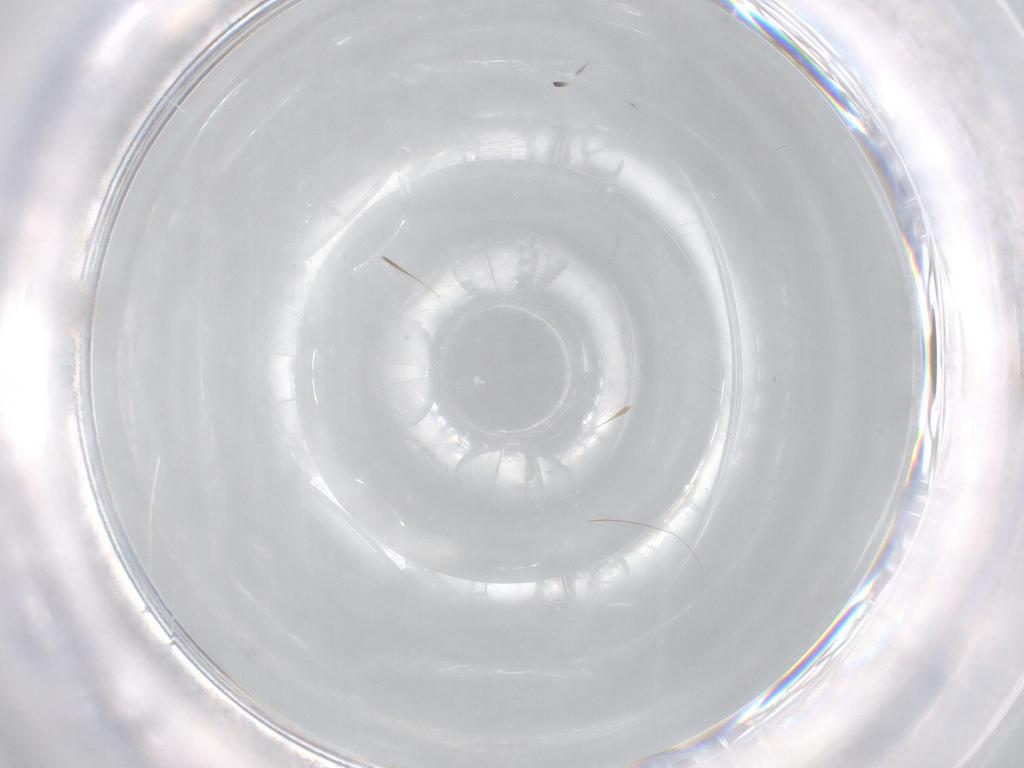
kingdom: Animalia
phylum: Arthropoda
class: Insecta
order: Diptera
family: Cecidomyiidae
